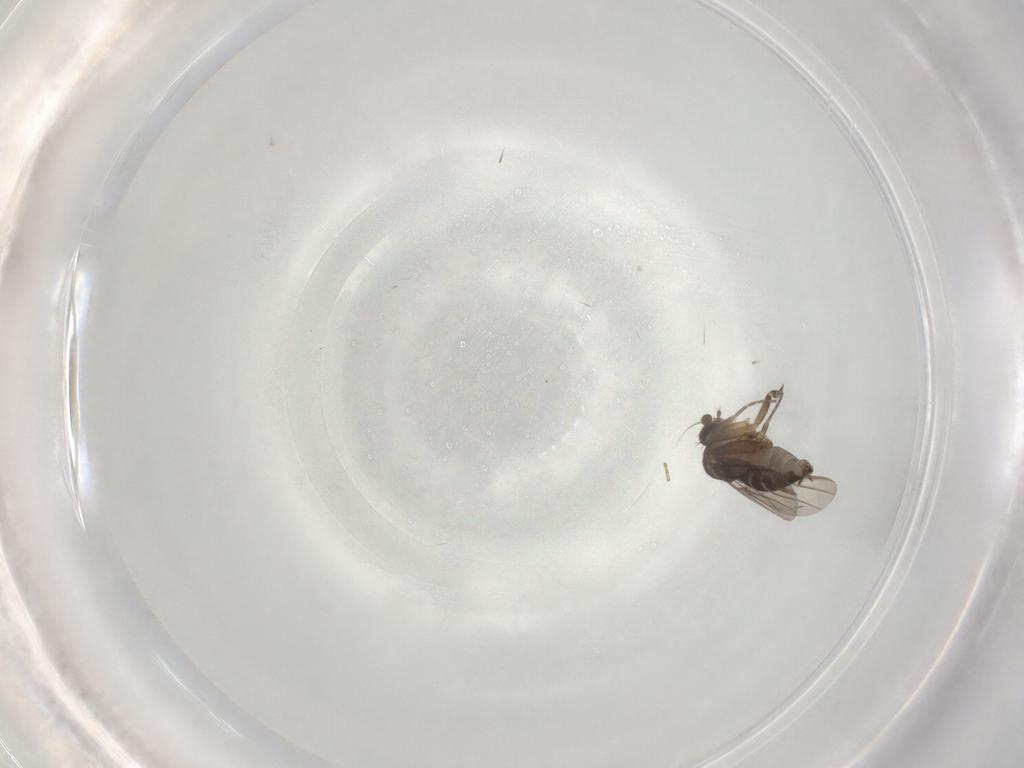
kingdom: Animalia
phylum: Arthropoda
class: Insecta
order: Diptera
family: Phoridae
